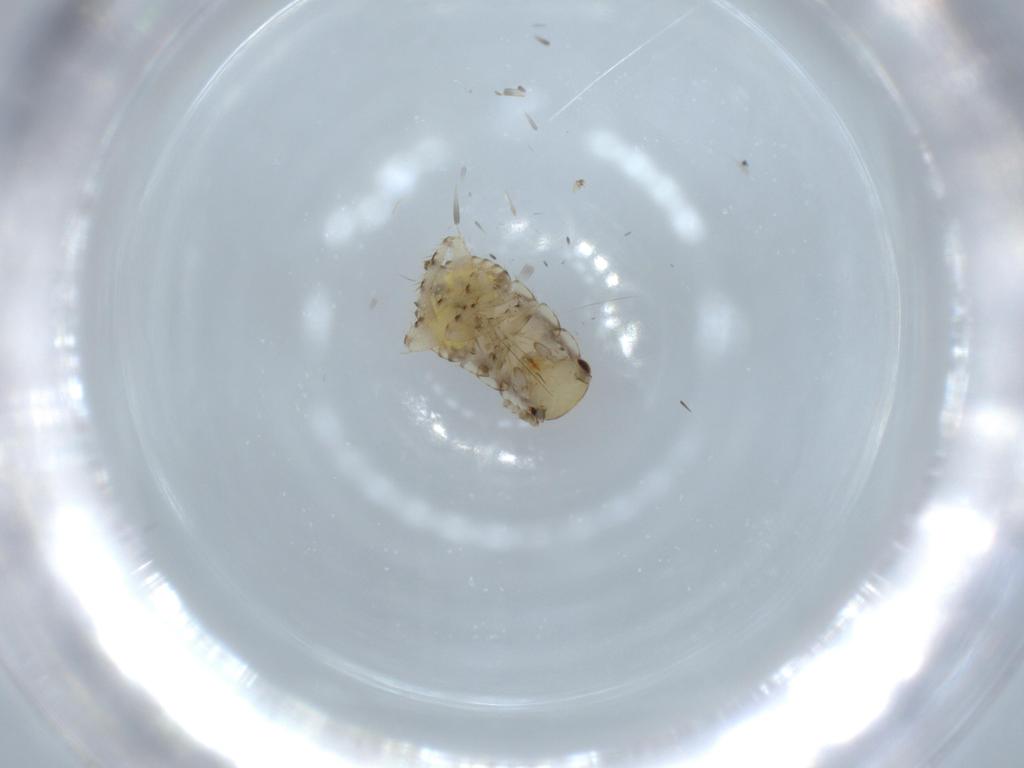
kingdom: Animalia
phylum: Arthropoda
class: Insecta
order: Blattodea
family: Ectobiidae
